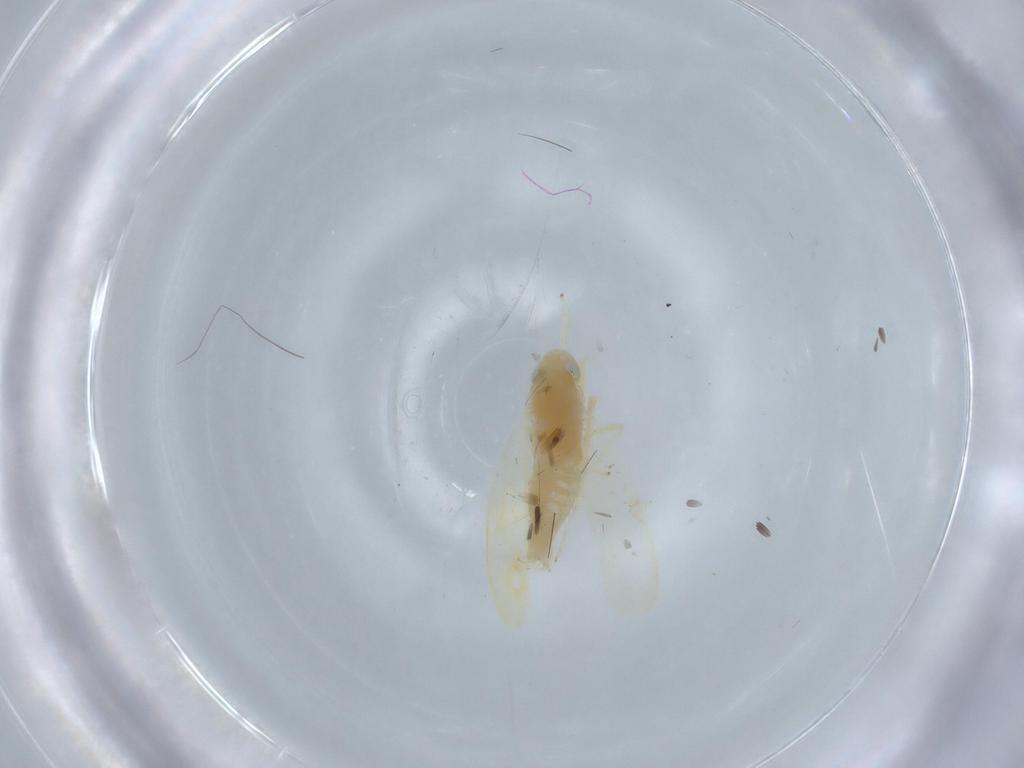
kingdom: Animalia
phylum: Arthropoda
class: Insecta
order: Hemiptera
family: Cicadellidae
